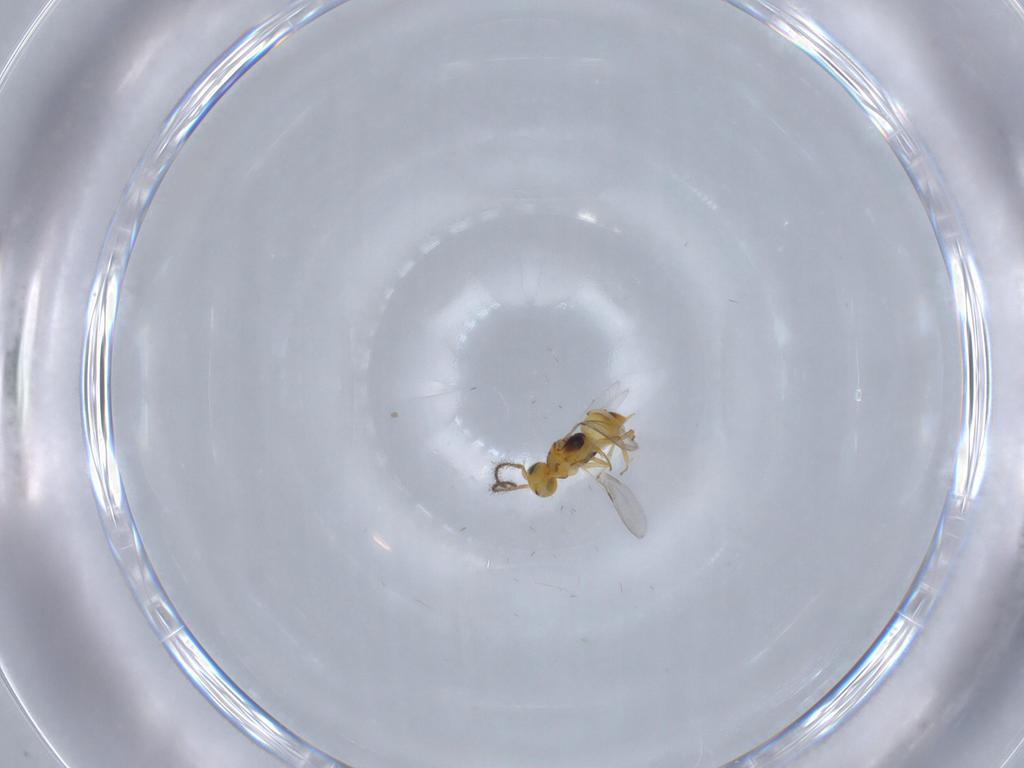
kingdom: Animalia
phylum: Arthropoda
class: Insecta
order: Hymenoptera
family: Encyrtidae
